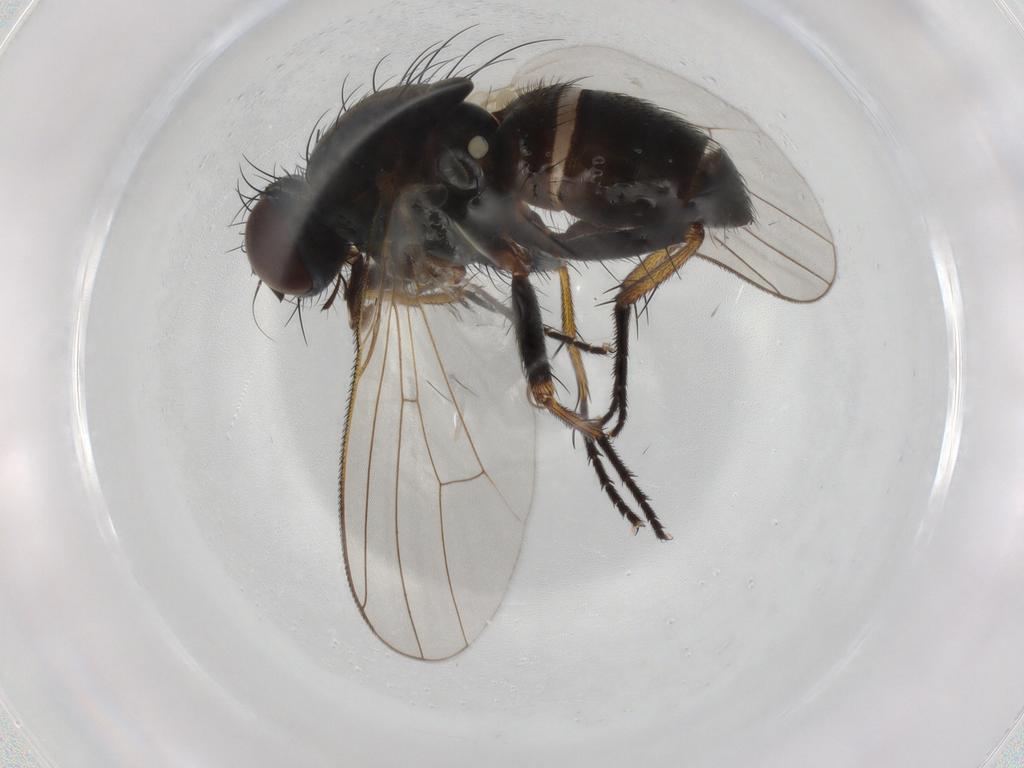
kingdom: Animalia
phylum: Arthropoda
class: Insecta
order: Diptera
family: Muscidae
